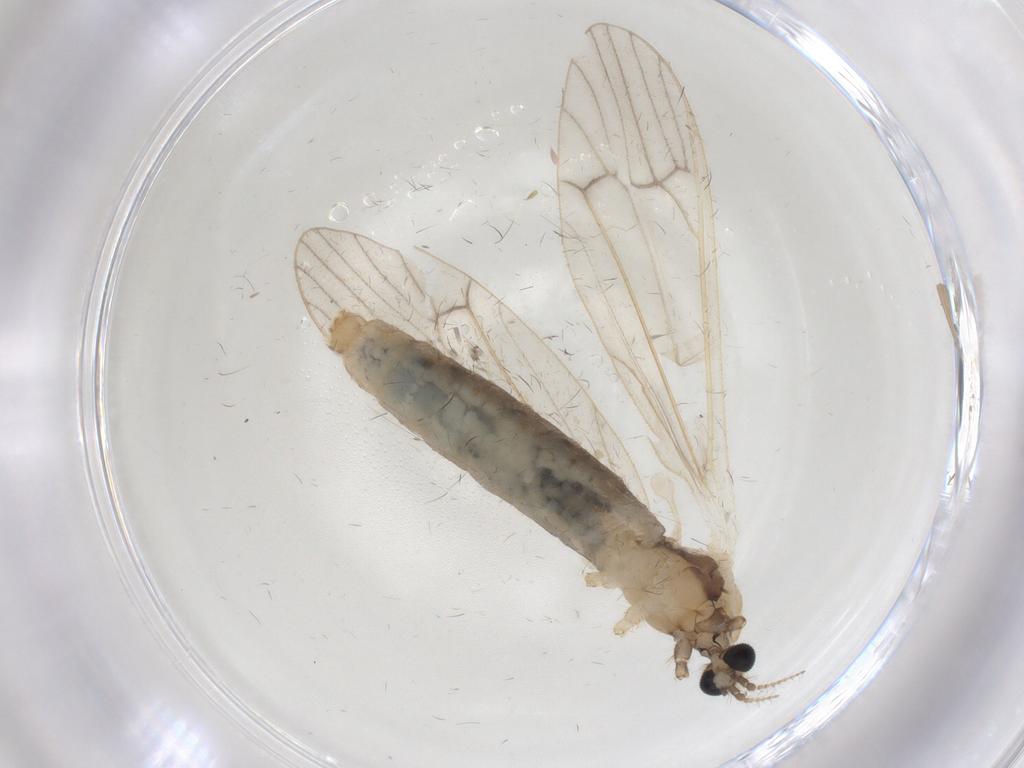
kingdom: Animalia
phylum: Arthropoda
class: Insecta
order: Diptera
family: Limoniidae
